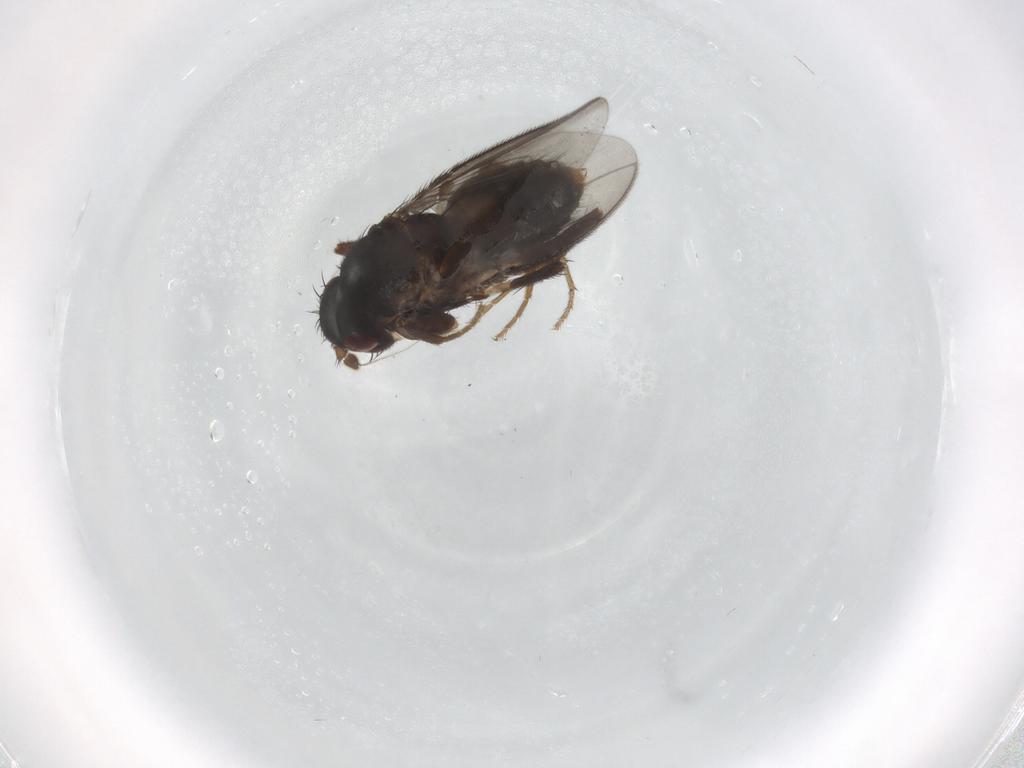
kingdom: Animalia
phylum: Arthropoda
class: Insecta
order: Diptera
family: Sphaeroceridae
